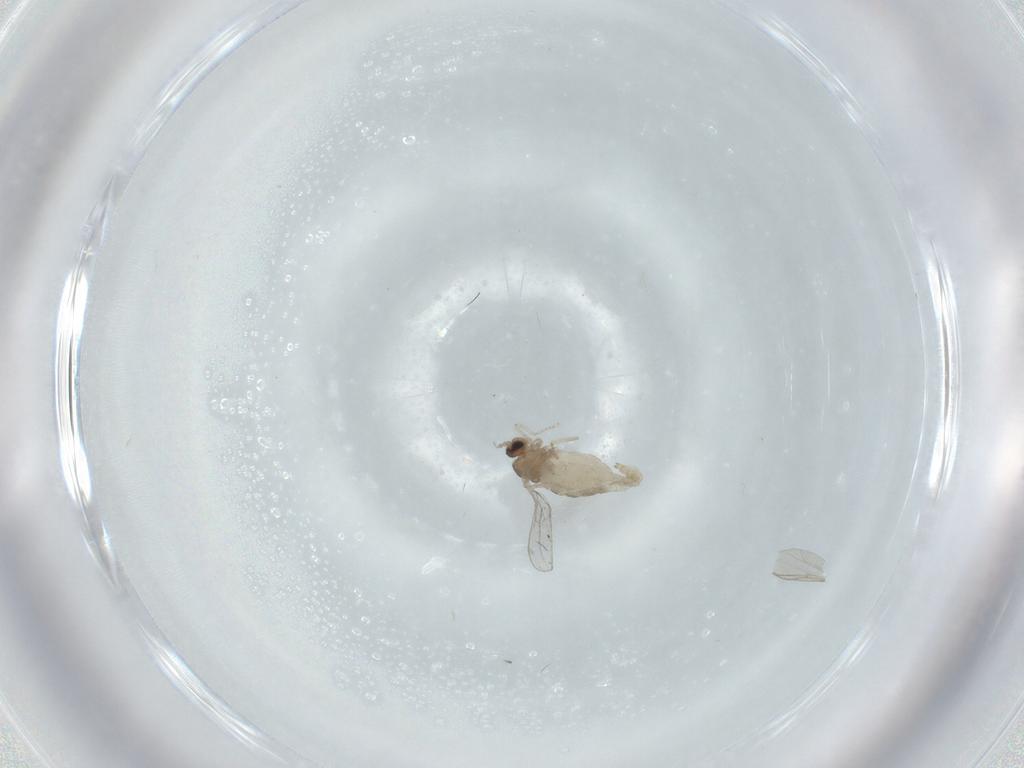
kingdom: Animalia
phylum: Arthropoda
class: Insecta
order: Diptera
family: Cecidomyiidae
